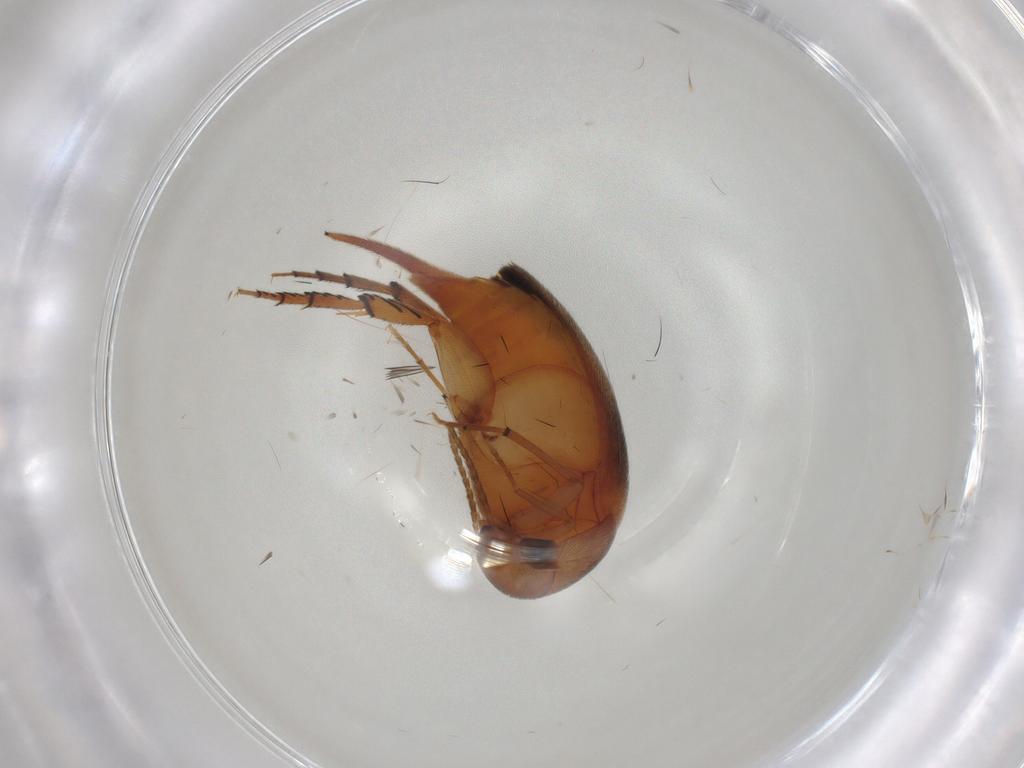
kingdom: Animalia
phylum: Arthropoda
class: Insecta
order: Coleoptera
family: Mordellidae
